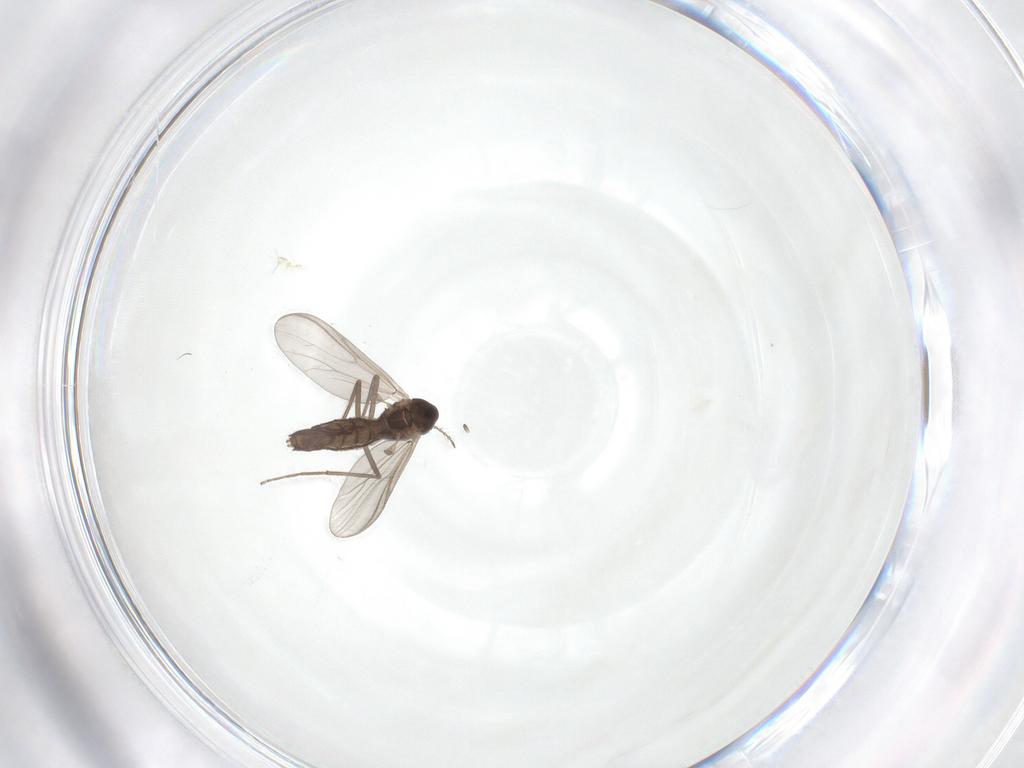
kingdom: Animalia
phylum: Arthropoda
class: Insecta
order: Diptera
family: Chironomidae
